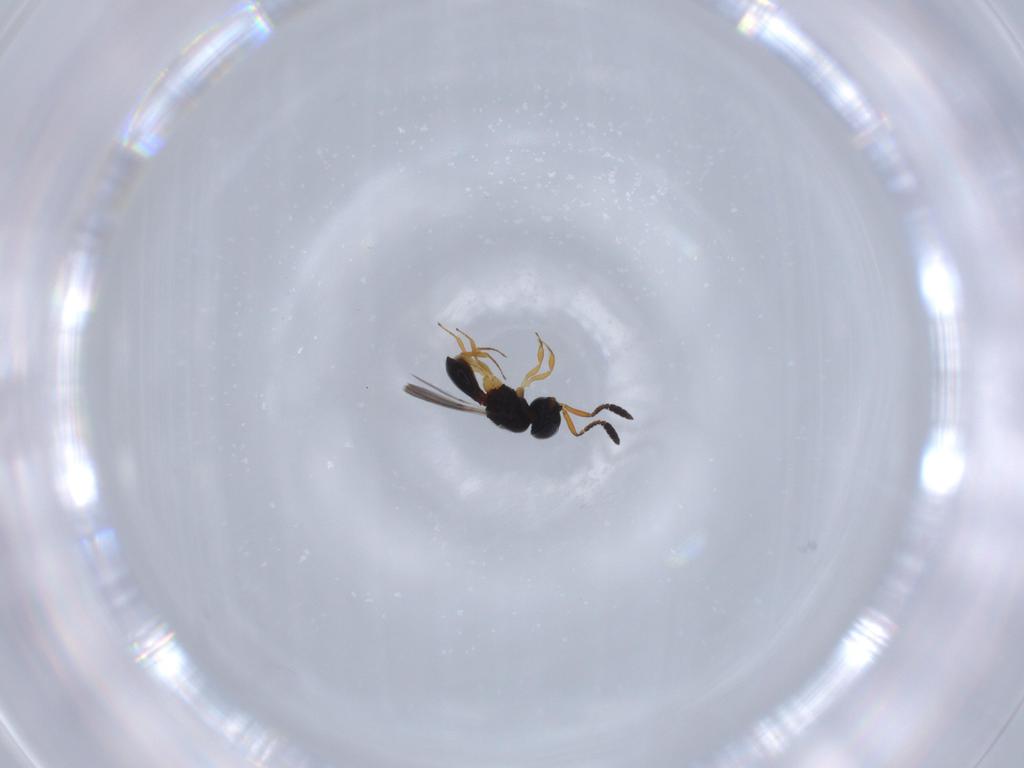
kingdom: Animalia
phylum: Arthropoda
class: Insecta
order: Hymenoptera
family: Scelionidae
